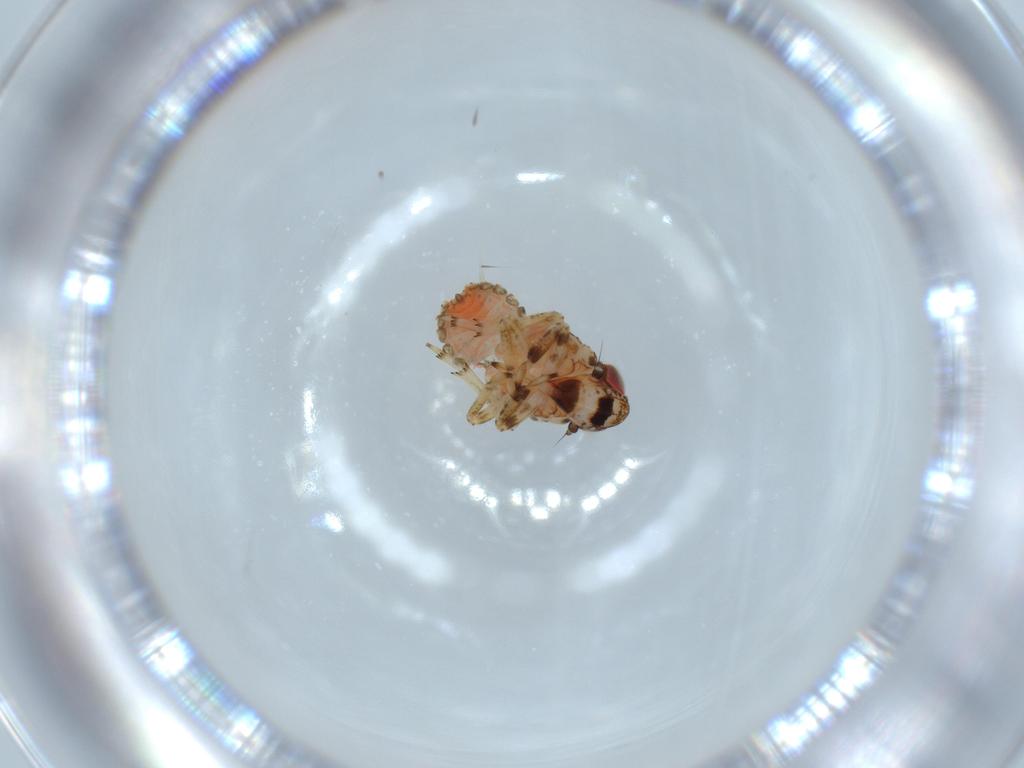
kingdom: Animalia
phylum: Arthropoda
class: Insecta
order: Hemiptera
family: Issidae
